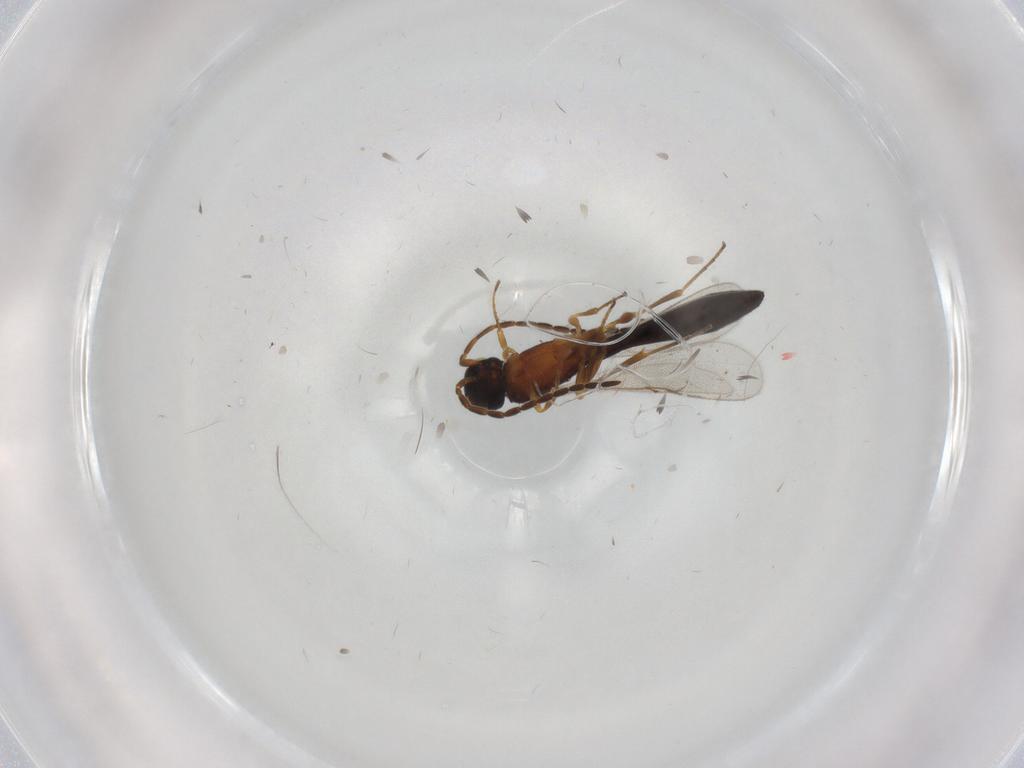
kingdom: Animalia
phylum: Arthropoda
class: Insecta
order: Hymenoptera
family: Scelionidae
